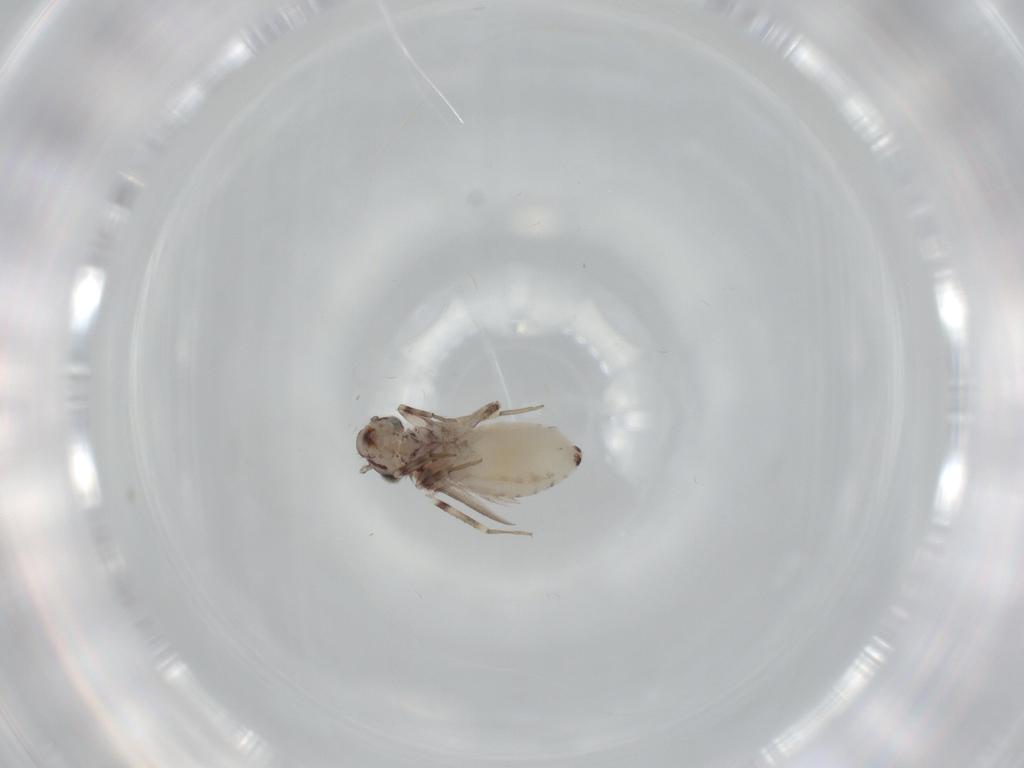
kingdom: Animalia
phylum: Arthropoda
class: Insecta
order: Psocodea
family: Lepidopsocidae
